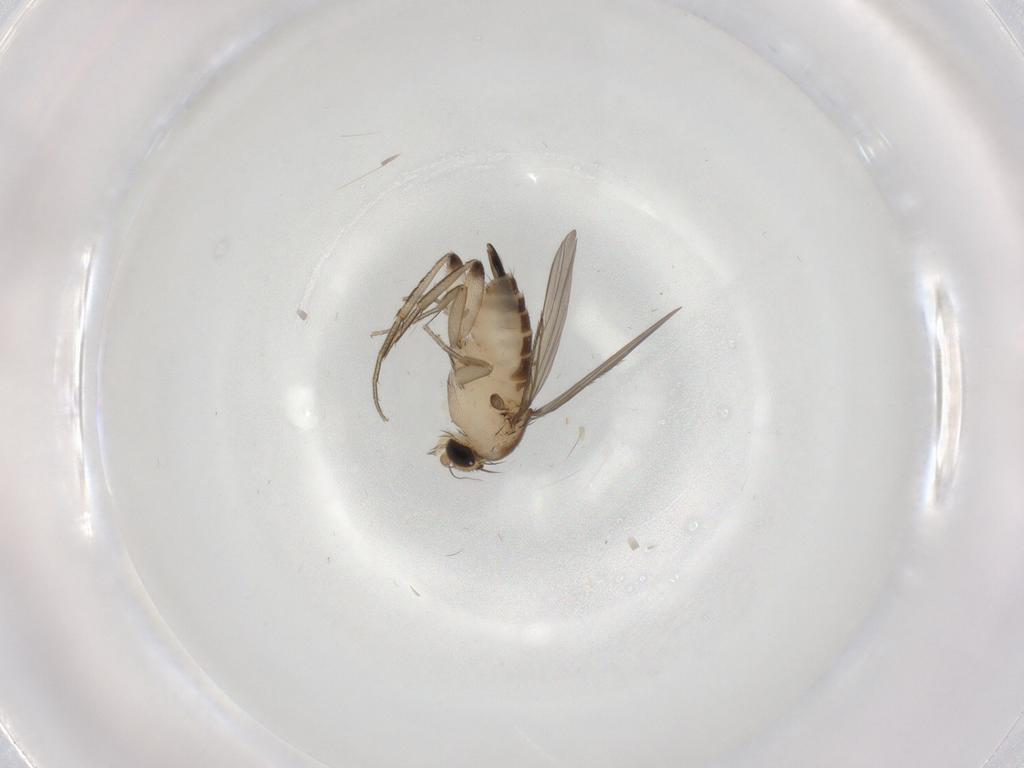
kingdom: Animalia
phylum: Arthropoda
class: Insecta
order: Diptera
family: Phoridae
